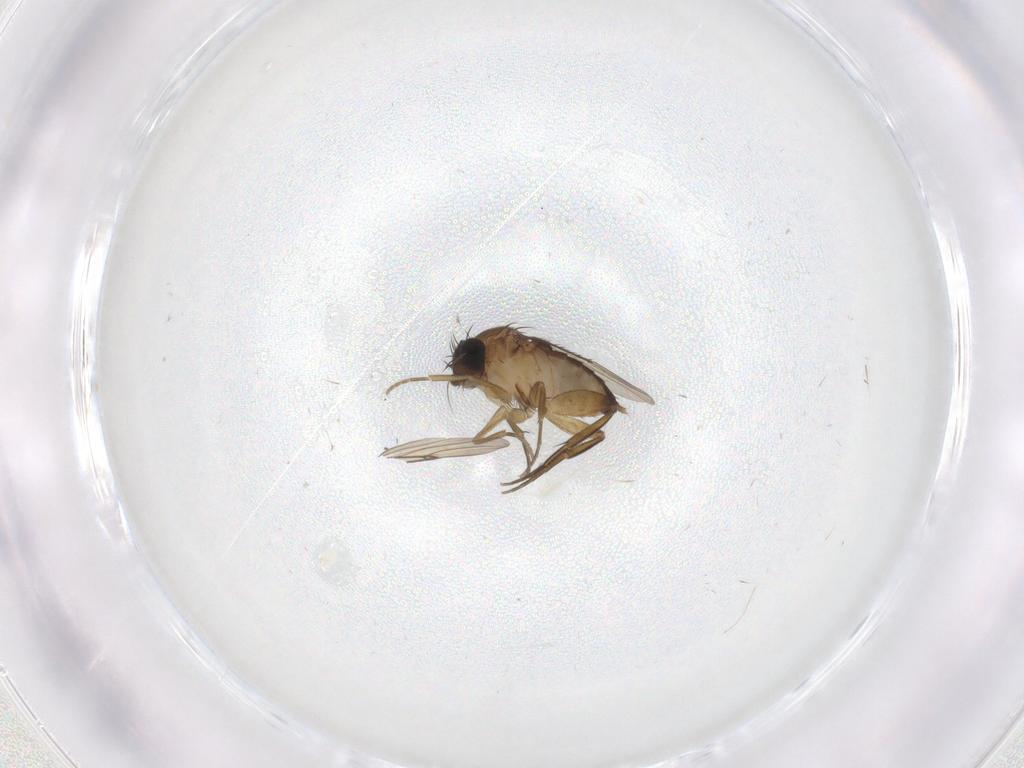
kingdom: Animalia
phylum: Arthropoda
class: Insecta
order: Diptera
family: Phoridae
